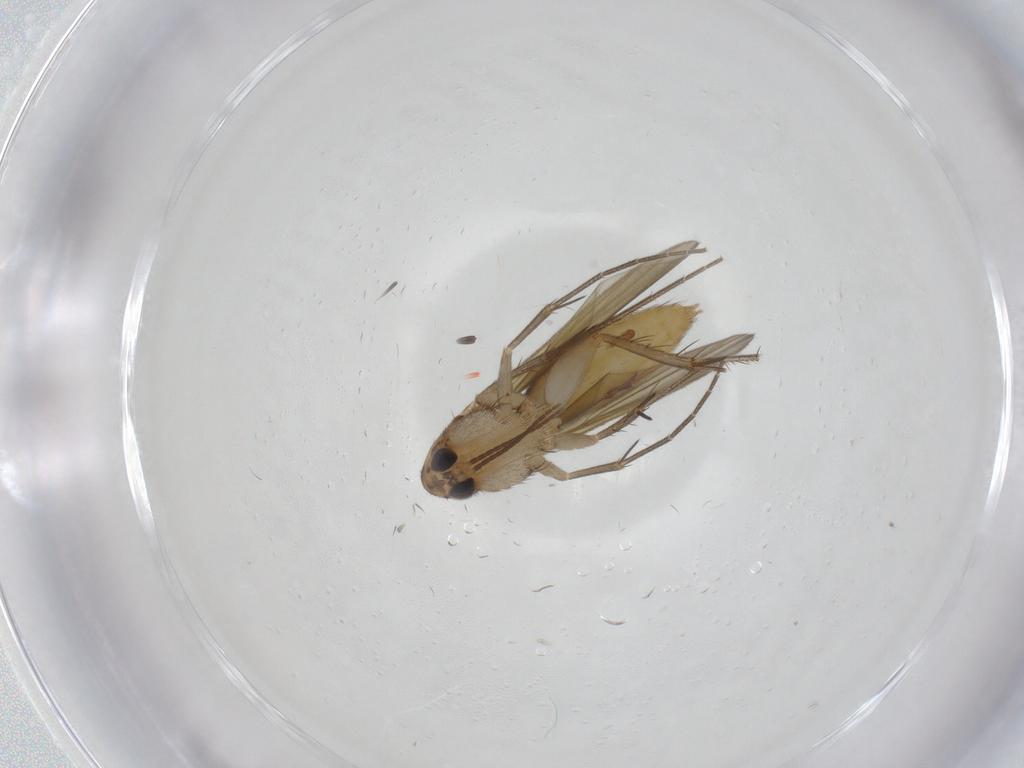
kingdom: Animalia
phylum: Arthropoda
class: Insecta
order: Diptera
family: Mycetophilidae
